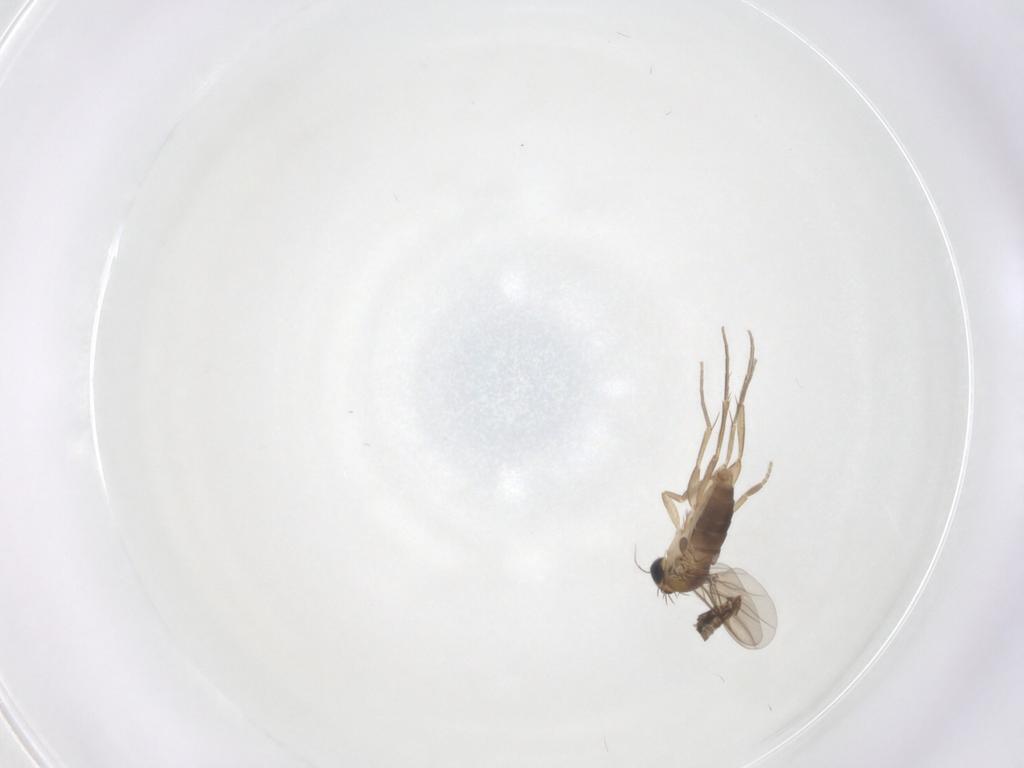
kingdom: Animalia
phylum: Arthropoda
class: Insecta
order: Diptera
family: Phoridae
